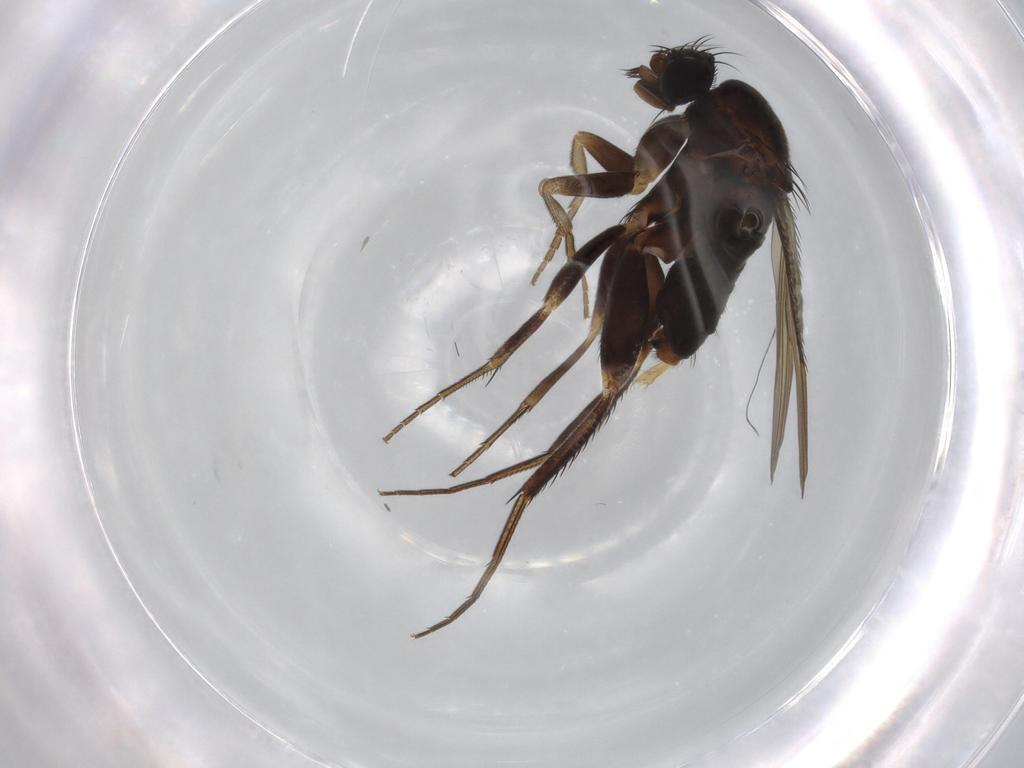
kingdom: Animalia
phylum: Arthropoda
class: Insecta
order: Diptera
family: Phoridae
